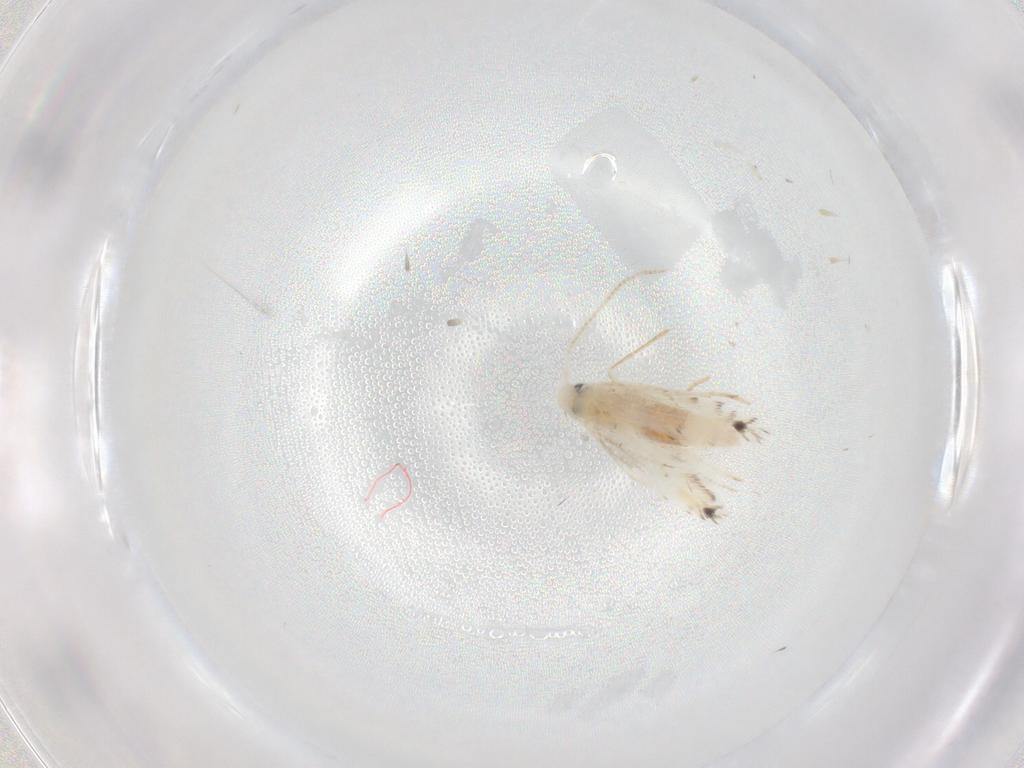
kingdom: Animalia
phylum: Arthropoda
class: Insecta
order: Lepidoptera
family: Gracillariidae
